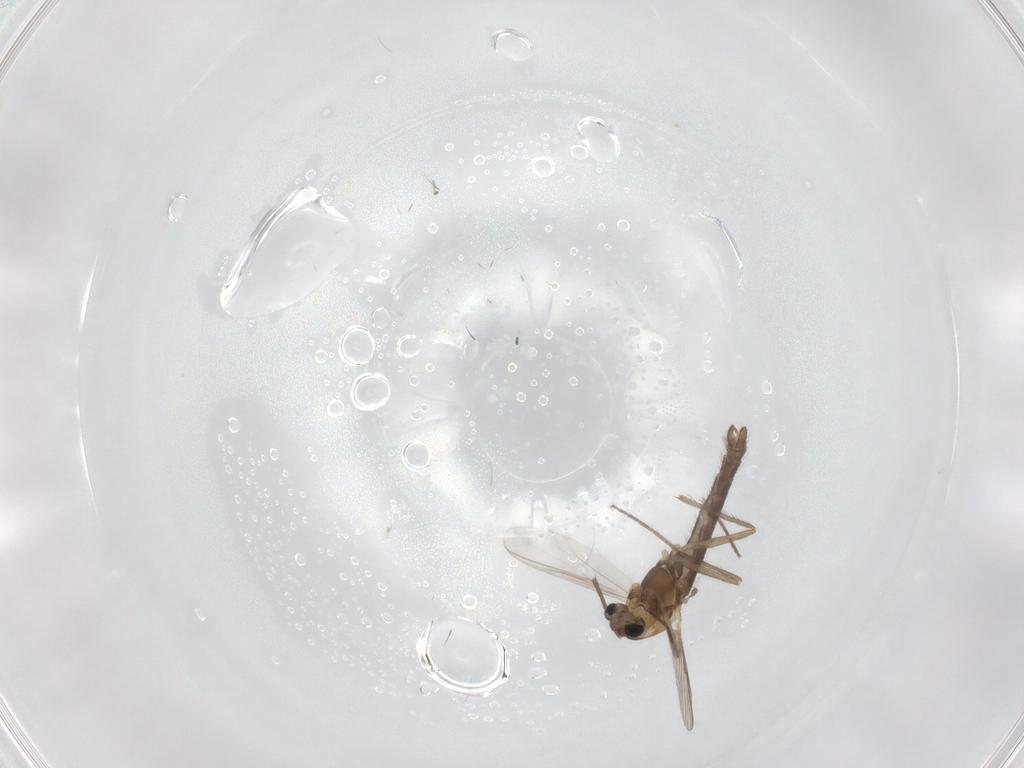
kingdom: Animalia
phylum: Arthropoda
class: Insecta
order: Diptera
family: Chironomidae
